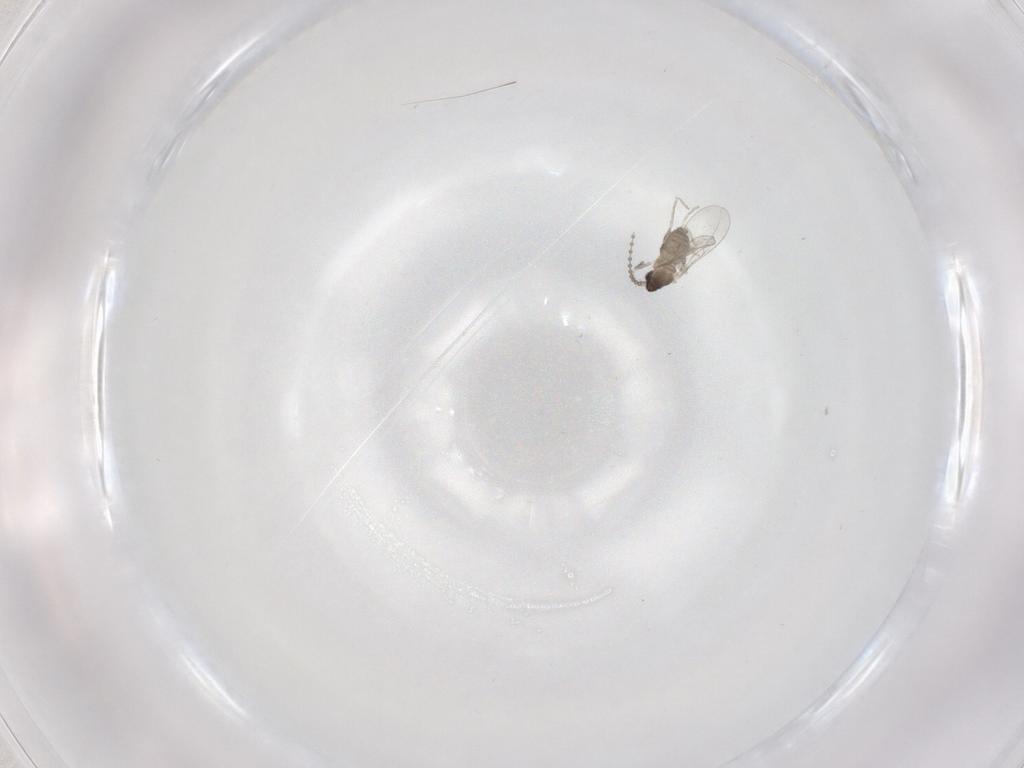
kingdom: Animalia
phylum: Arthropoda
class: Insecta
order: Diptera
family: Cecidomyiidae
